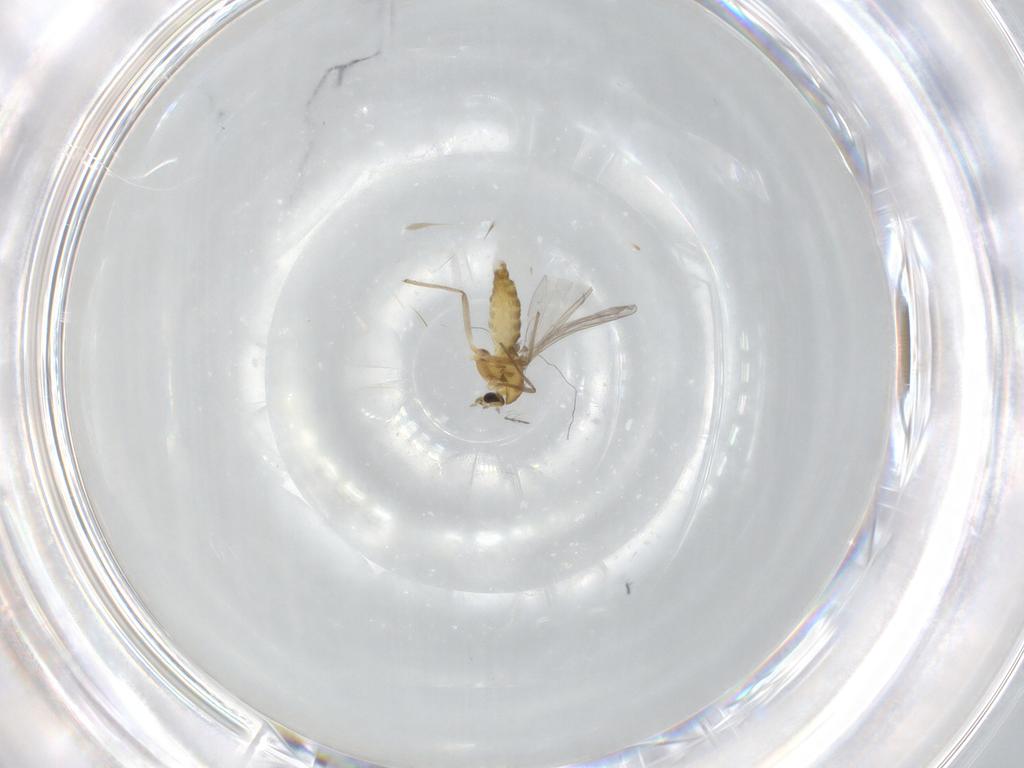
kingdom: Animalia
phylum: Arthropoda
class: Insecta
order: Diptera
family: Chironomidae
